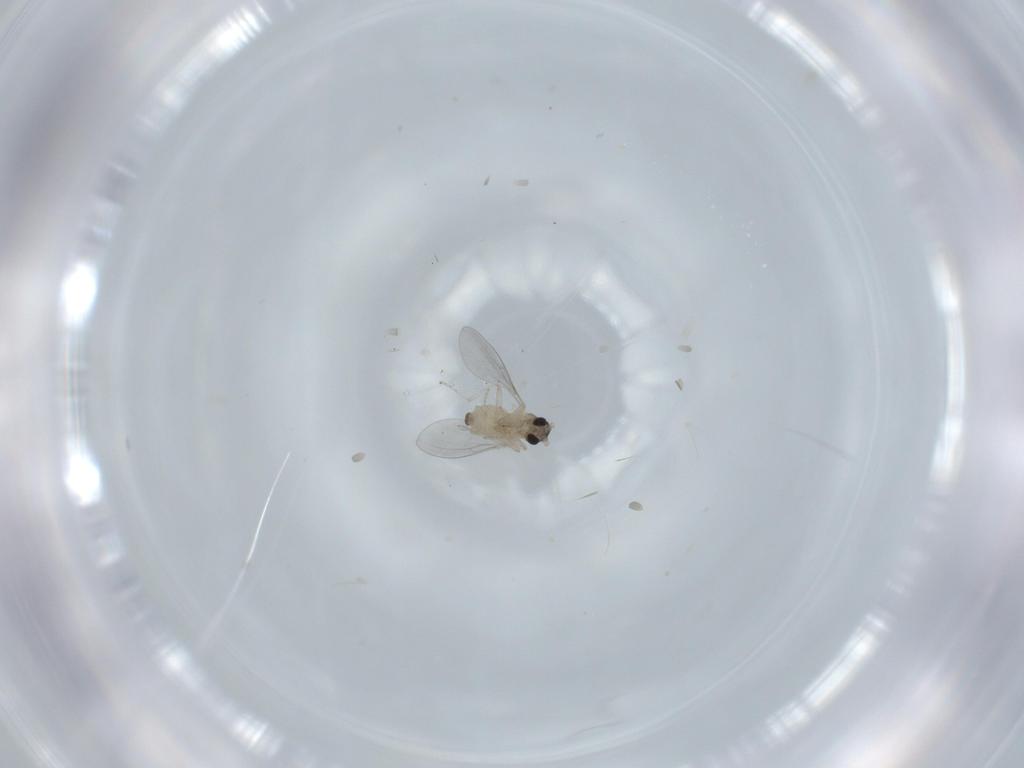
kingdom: Animalia
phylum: Arthropoda
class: Insecta
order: Diptera
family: Cecidomyiidae
